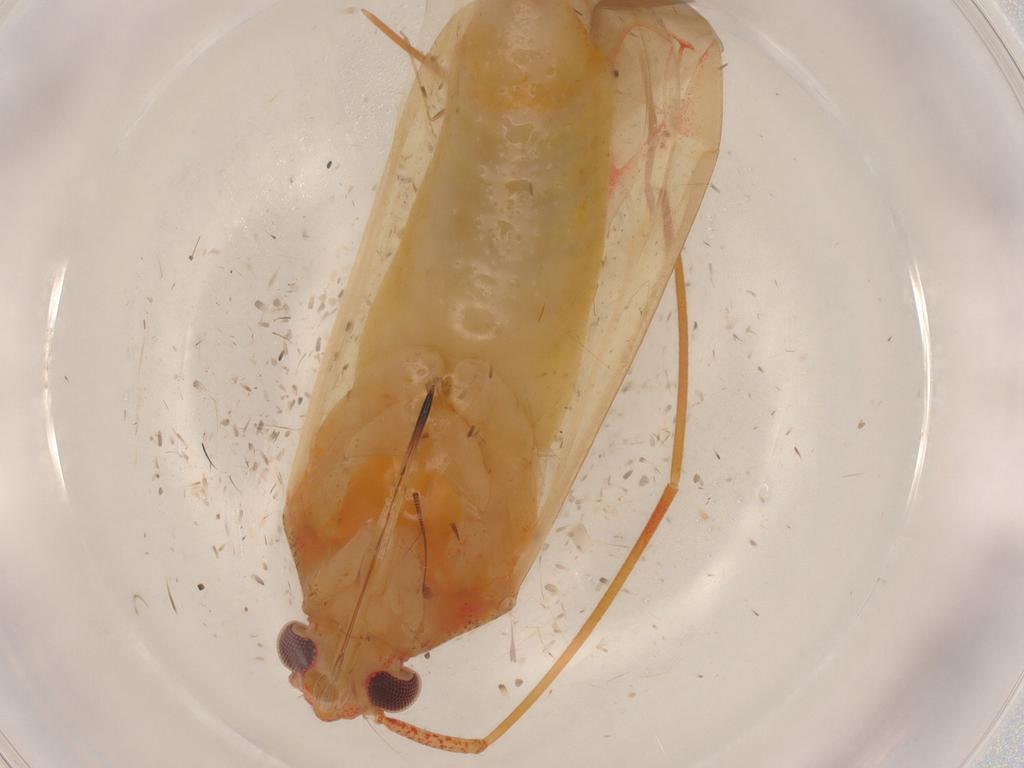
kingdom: Animalia
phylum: Arthropoda
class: Insecta
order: Hemiptera
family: Miridae
